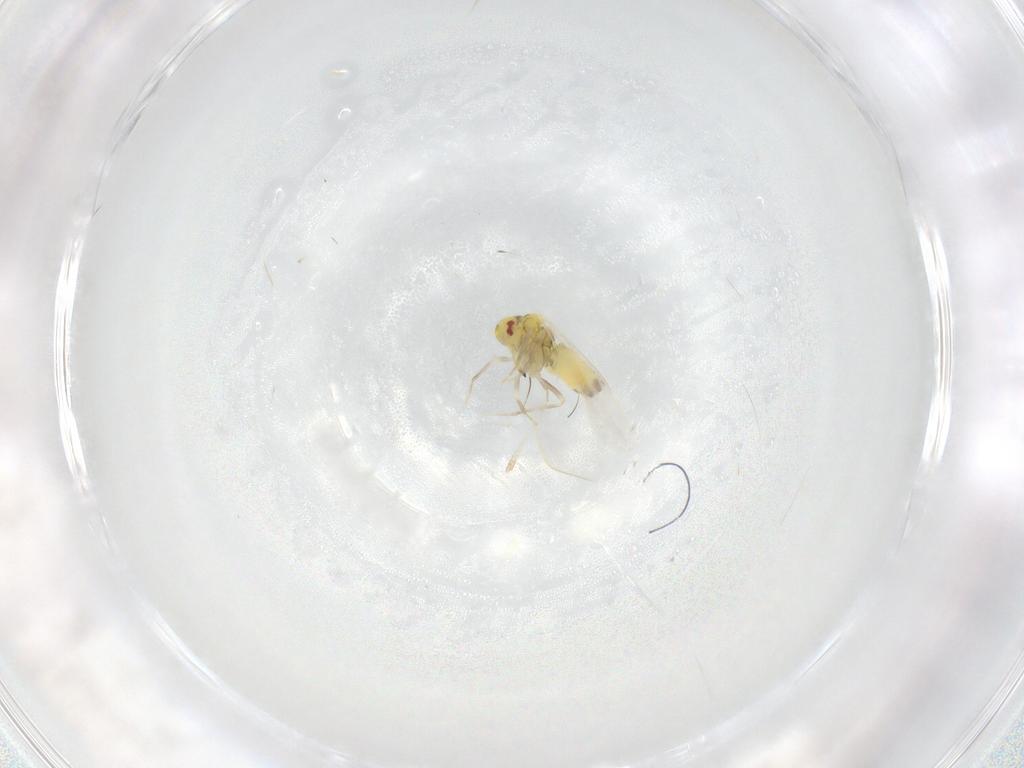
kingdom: Animalia
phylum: Arthropoda
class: Insecta
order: Hemiptera
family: Aleyrodidae
